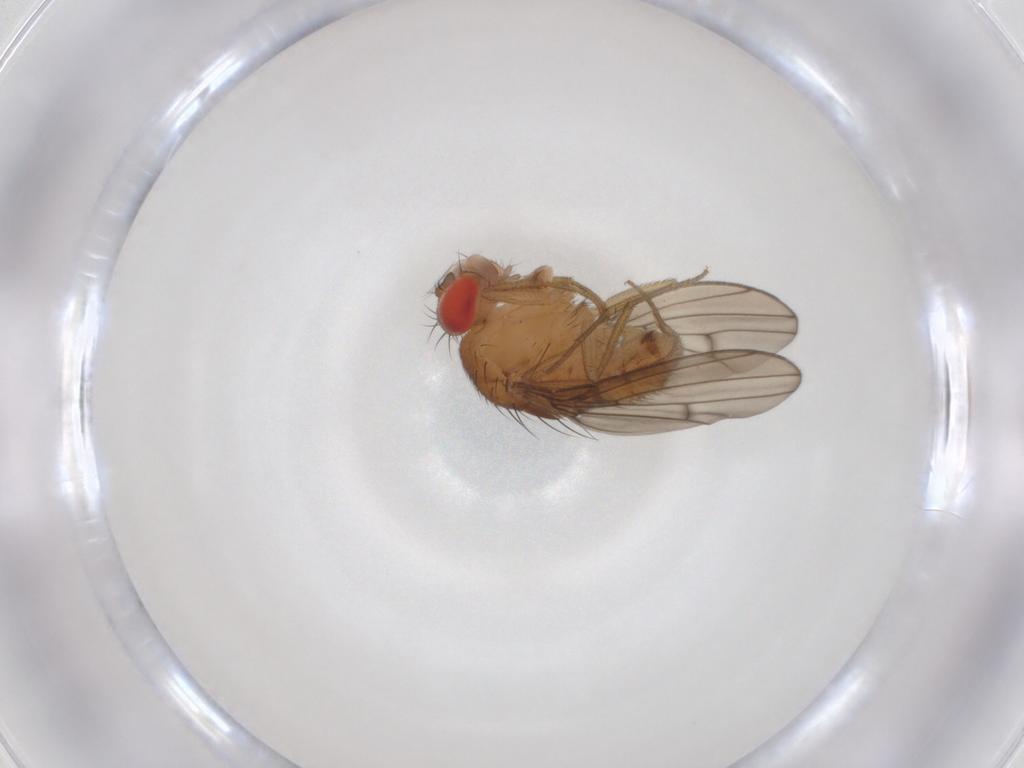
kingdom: Animalia
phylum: Arthropoda
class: Insecta
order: Diptera
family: Drosophilidae
